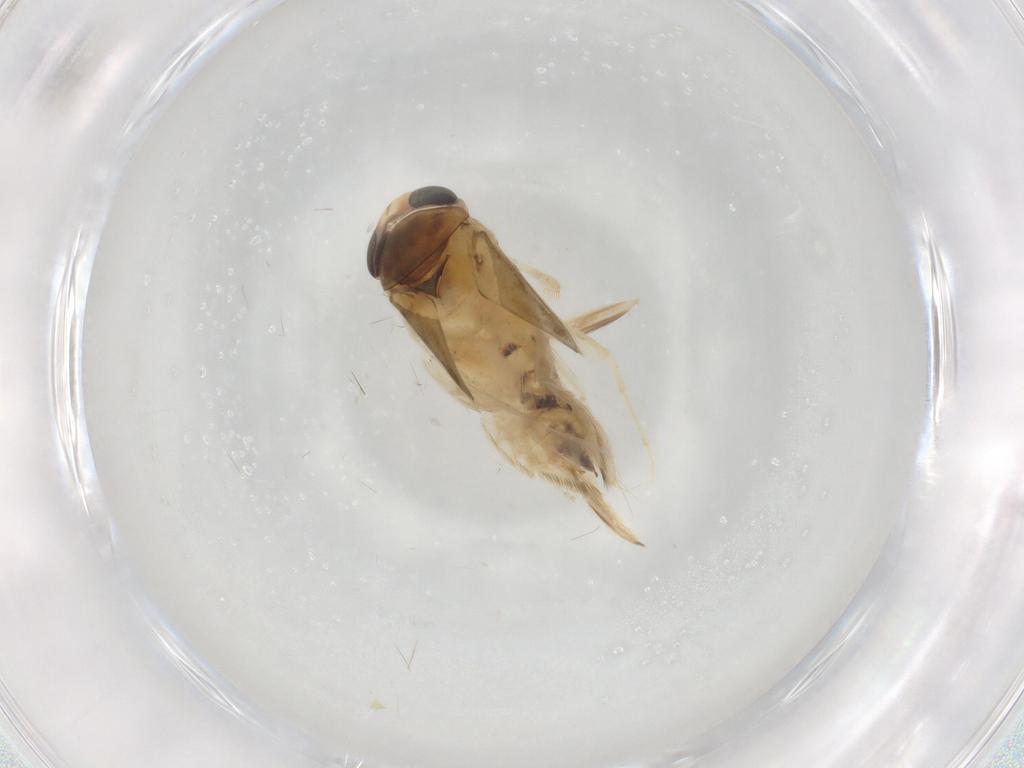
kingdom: Animalia
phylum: Arthropoda
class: Insecta
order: Hemiptera
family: Corixidae
